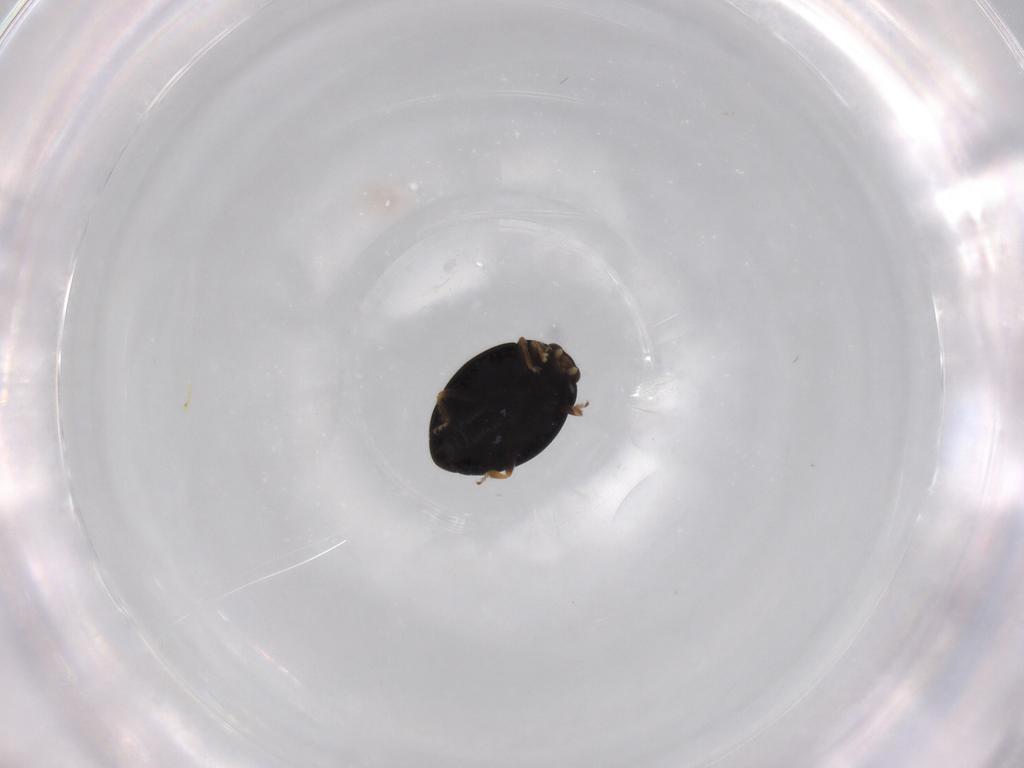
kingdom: Animalia
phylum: Arthropoda
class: Insecta
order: Coleoptera
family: Coccinellidae
